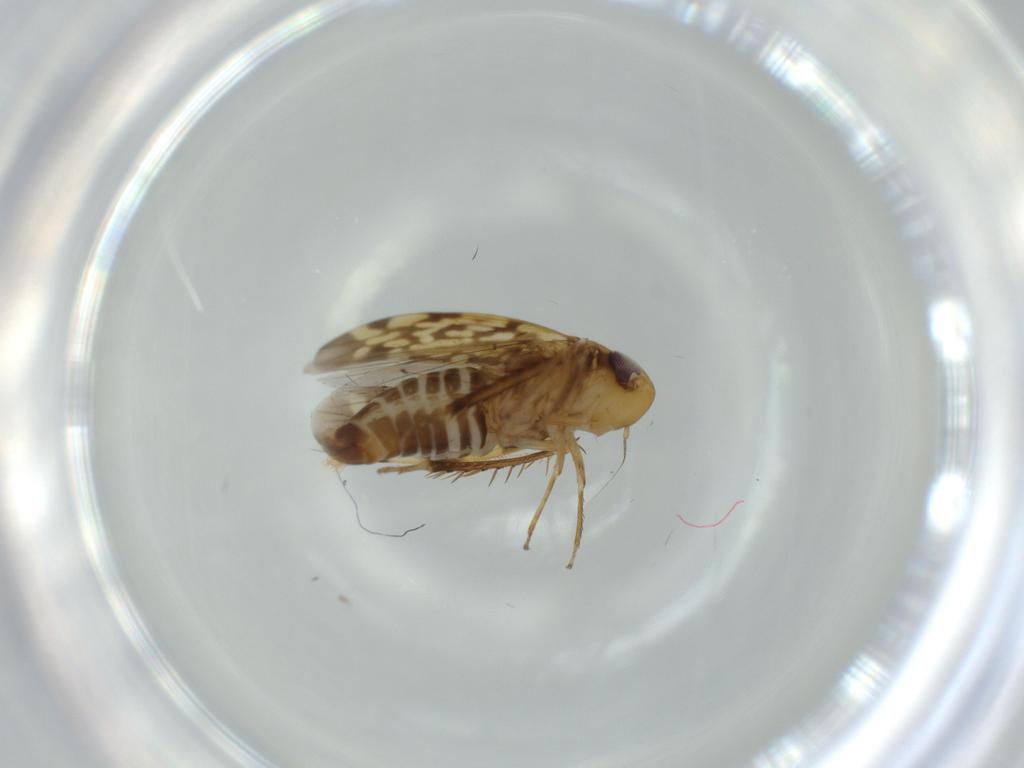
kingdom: Animalia
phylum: Arthropoda
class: Insecta
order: Hemiptera
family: Cicadellidae
